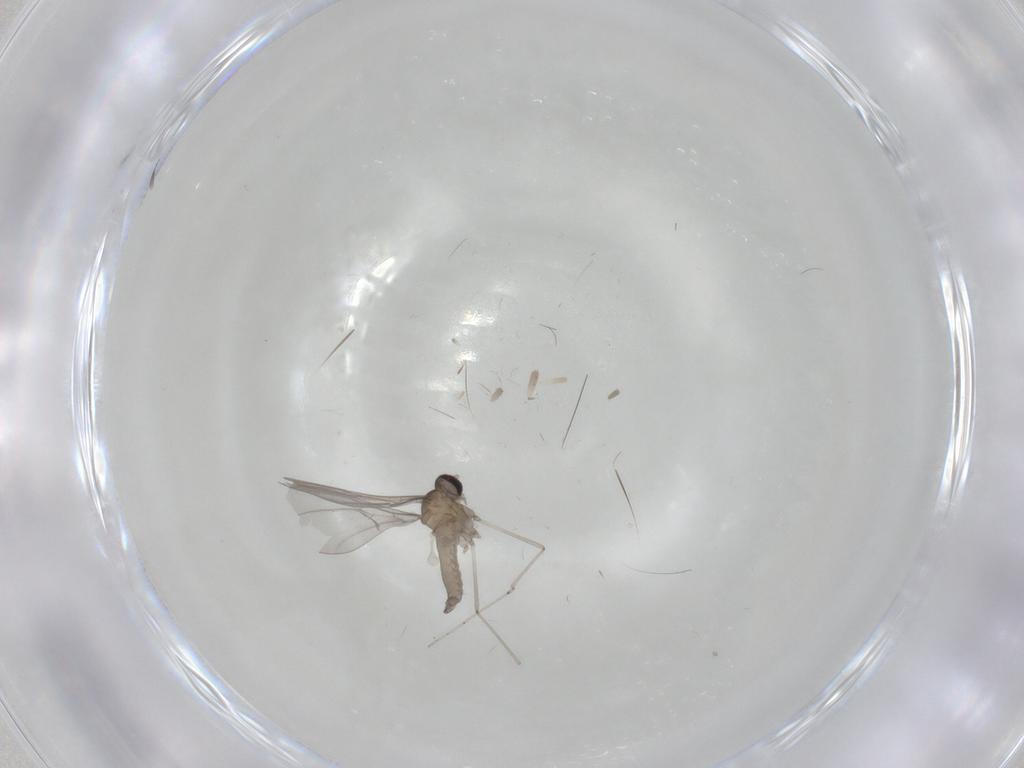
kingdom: Animalia
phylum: Arthropoda
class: Insecta
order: Diptera
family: Cecidomyiidae
